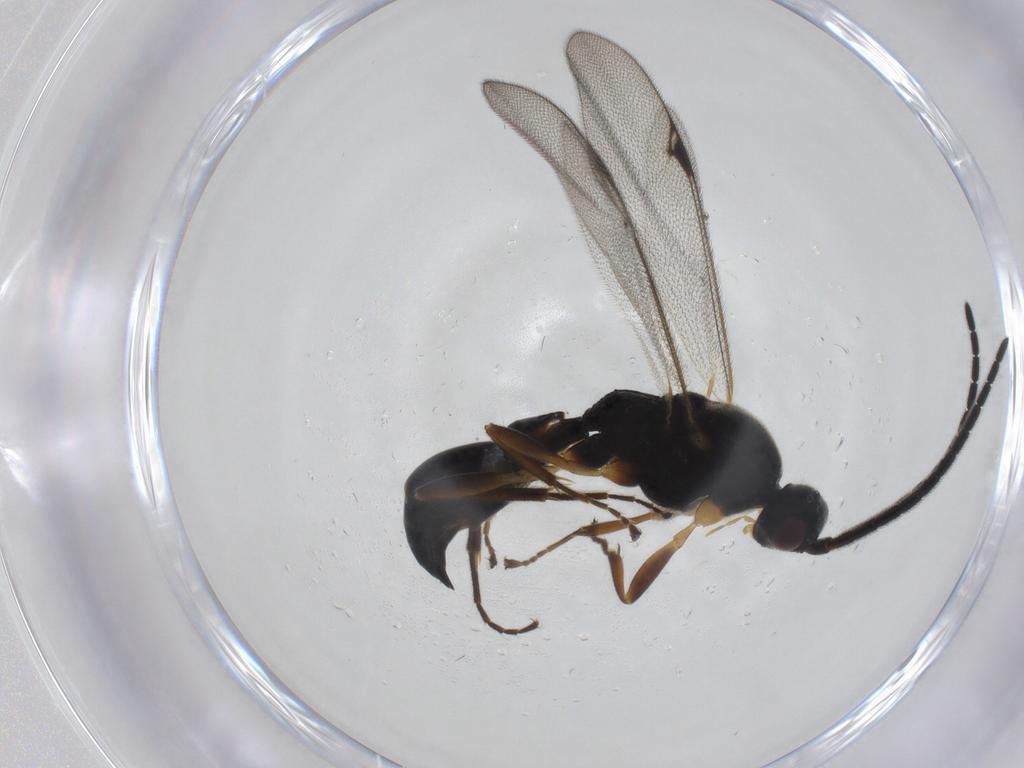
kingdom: Animalia
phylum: Arthropoda
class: Insecta
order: Hymenoptera
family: Proctotrupidae
